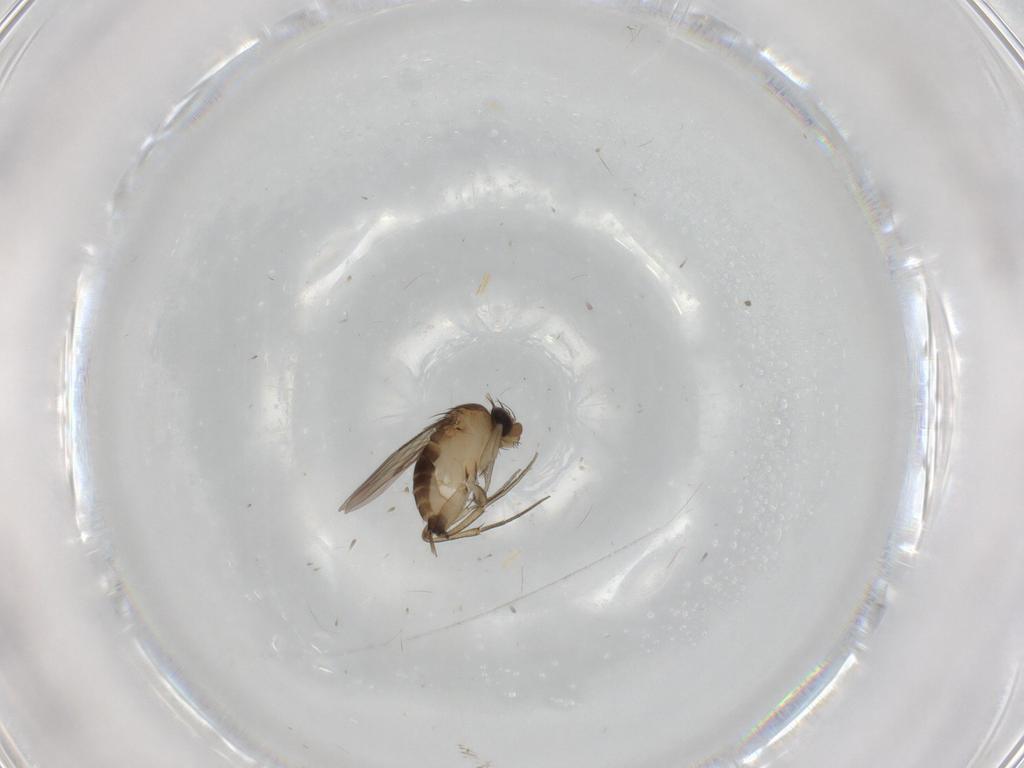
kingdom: Animalia
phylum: Arthropoda
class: Insecta
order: Diptera
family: Phoridae
